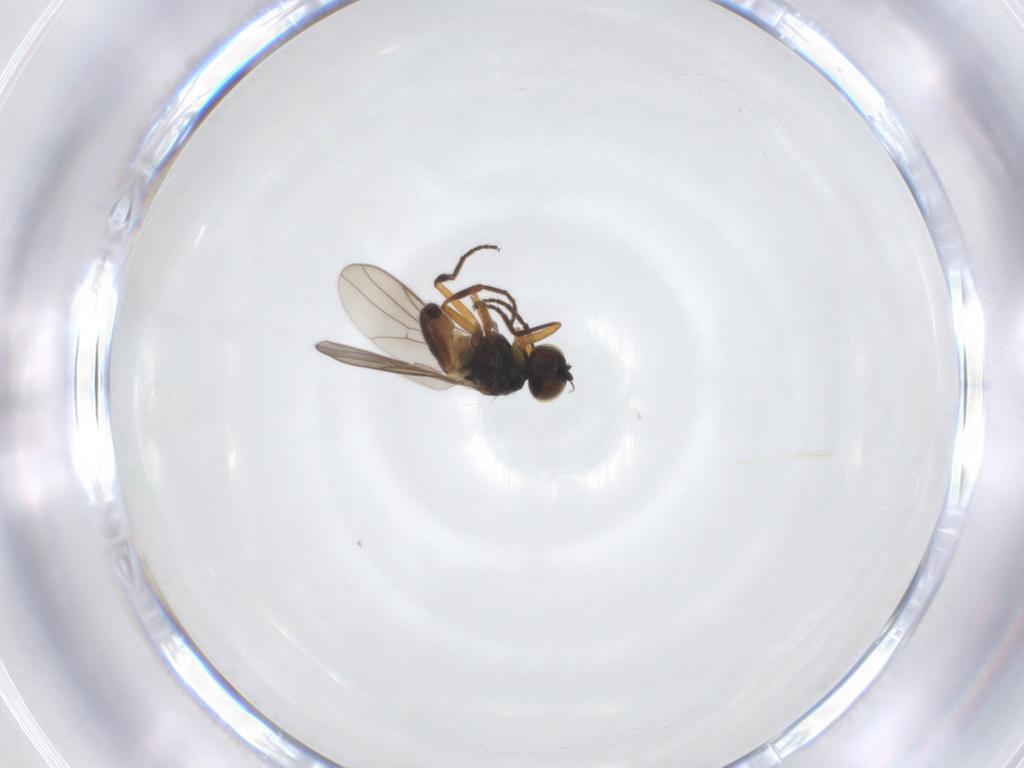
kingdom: Animalia
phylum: Arthropoda
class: Insecta
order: Diptera
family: Chloropidae
